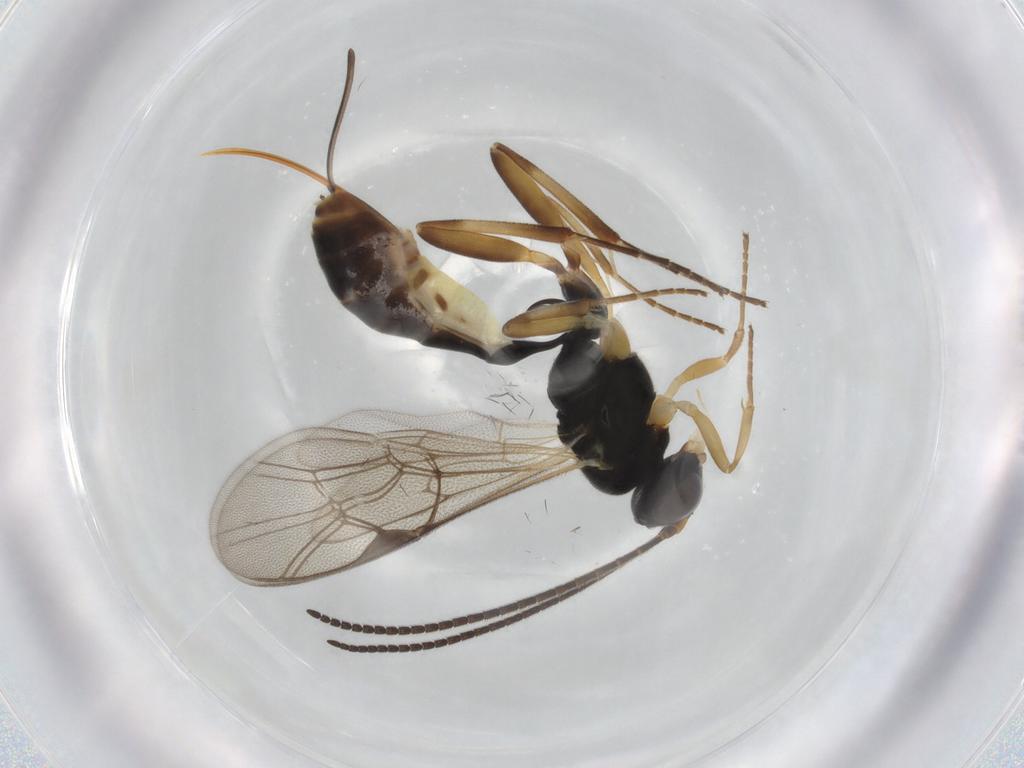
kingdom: Animalia
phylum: Arthropoda
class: Insecta
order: Hymenoptera
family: Ichneumonidae
